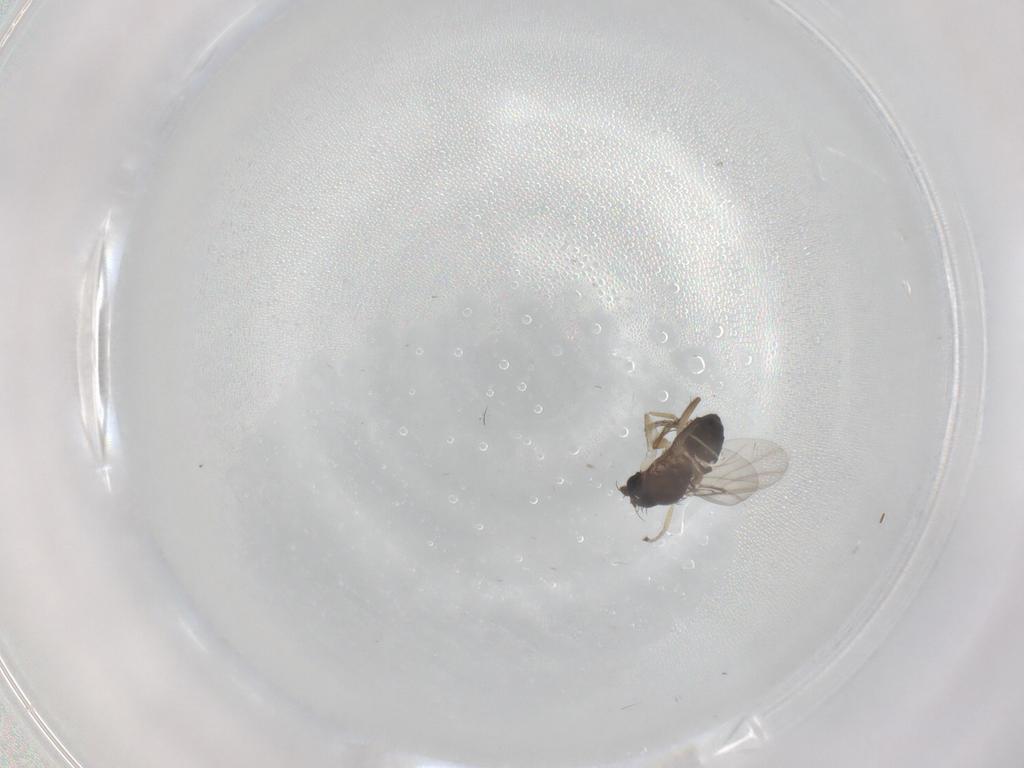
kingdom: Animalia
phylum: Arthropoda
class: Insecta
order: Diptera
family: Phoridae
